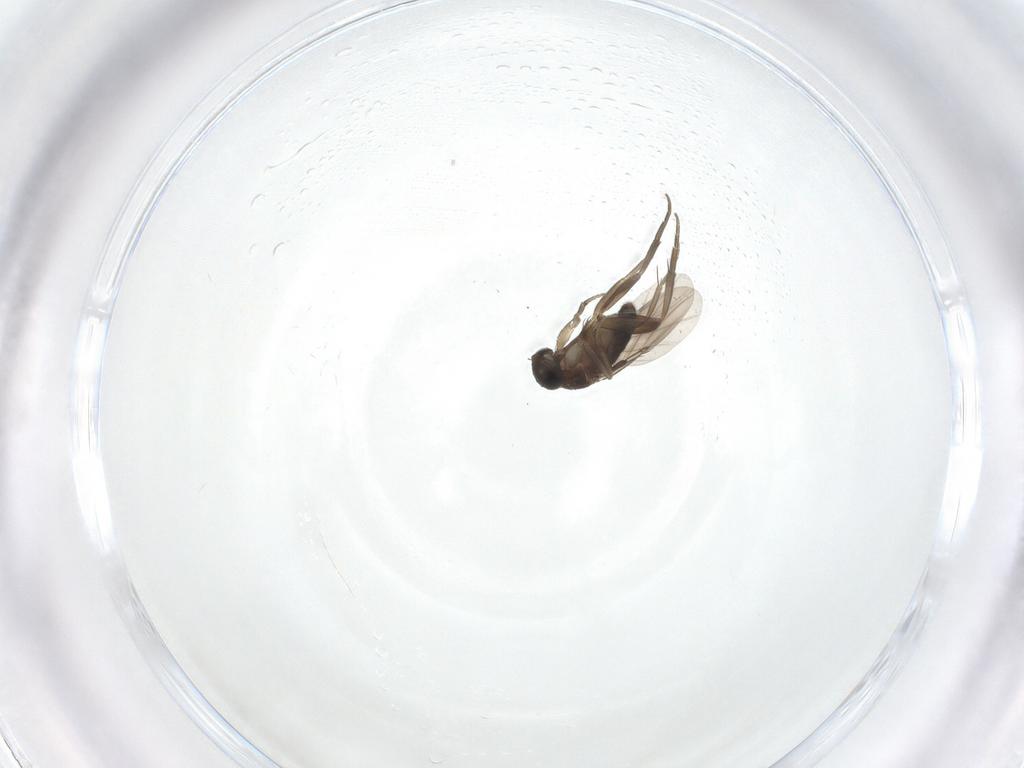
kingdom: Animalia
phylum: Arthropoda
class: Insecta
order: Diptera
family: Phoridae
